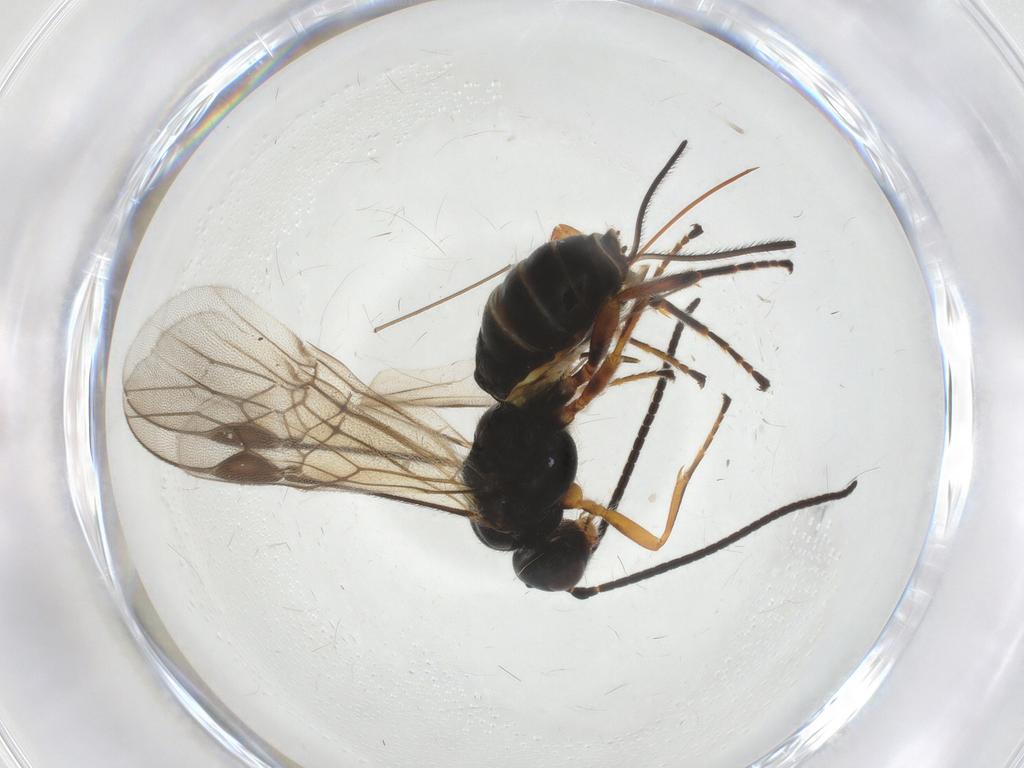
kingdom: Animalia
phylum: Arthropoda
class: Insecta
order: Hymenoptera
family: Braconidae
